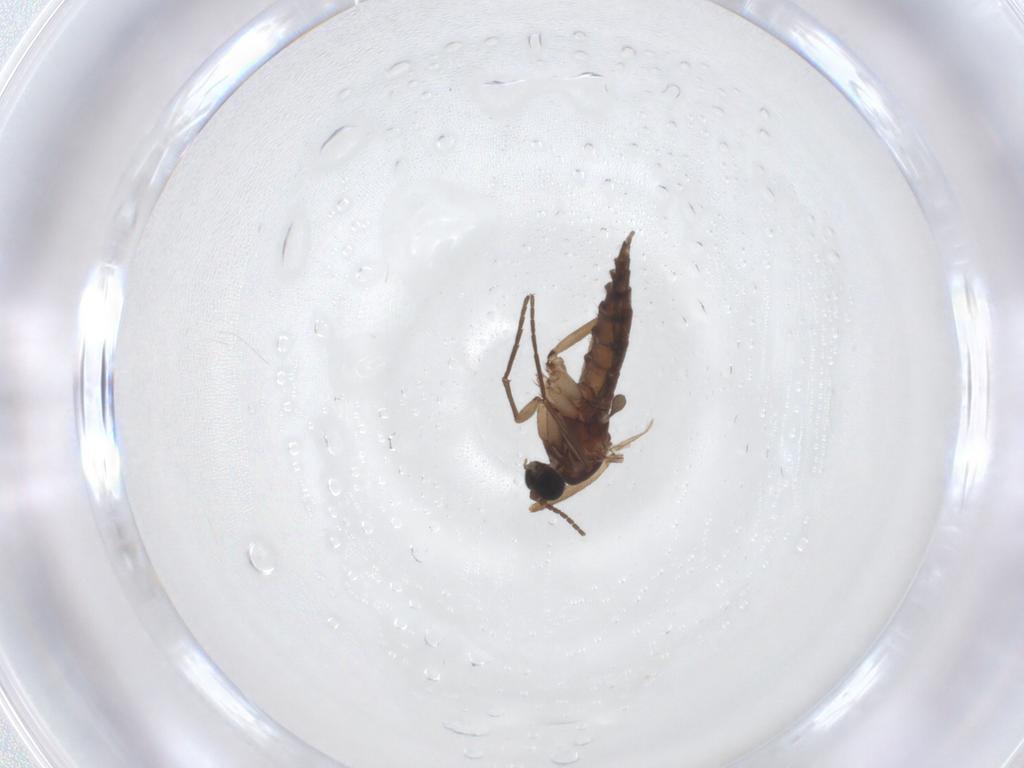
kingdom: Animalia
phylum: Arthropoda
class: Insecta
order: Diptera
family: Sciaridae
